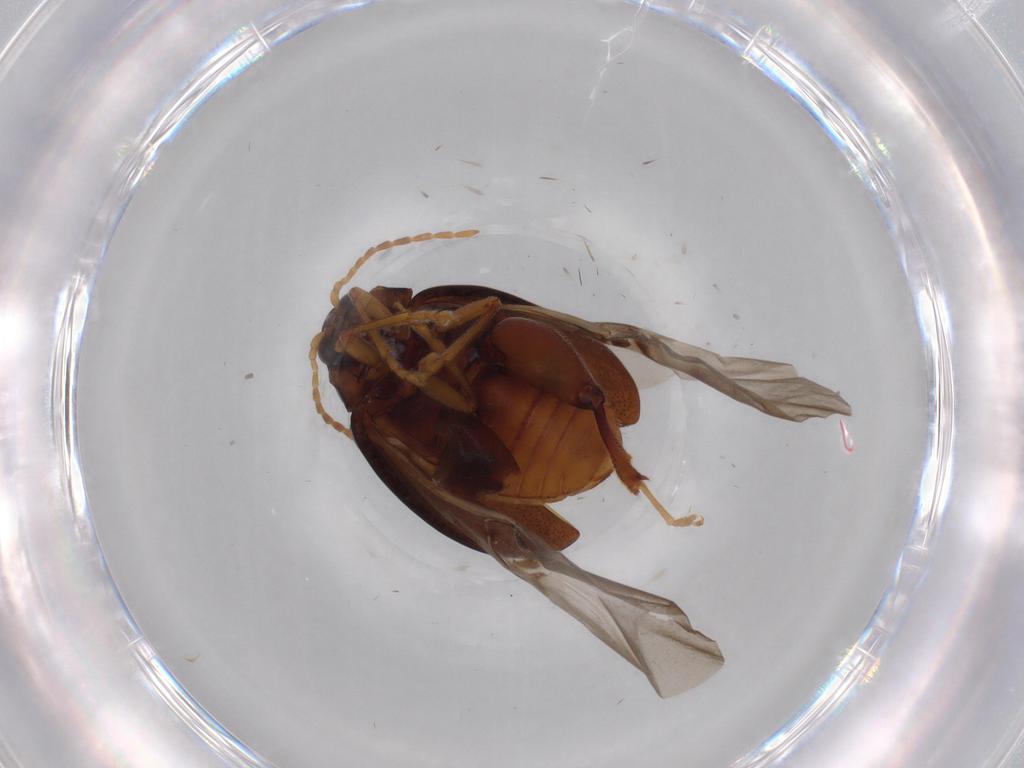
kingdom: Animalia
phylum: Arthropoda
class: Insecta
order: Coleoptera
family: Chrysomelidae
